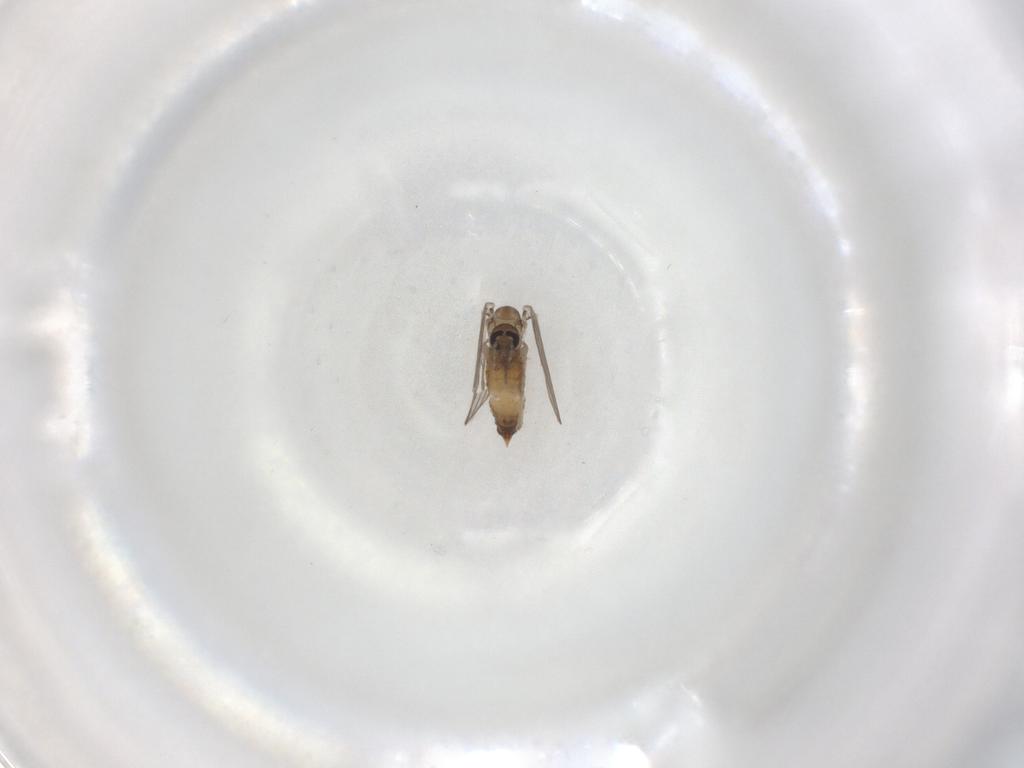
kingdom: Animalia
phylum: Arthropoda
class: Insecta
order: Diptera
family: Psychodidae
